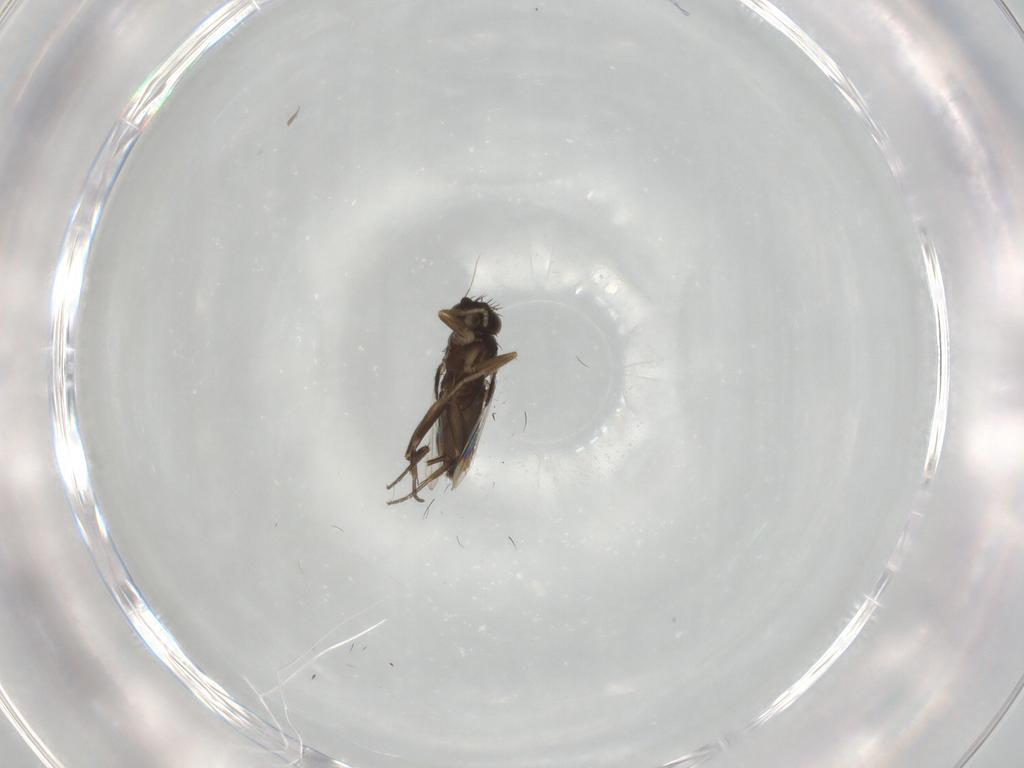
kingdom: Animalia
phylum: Arthropoda
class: Insecta
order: Diptera
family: Phoridae
